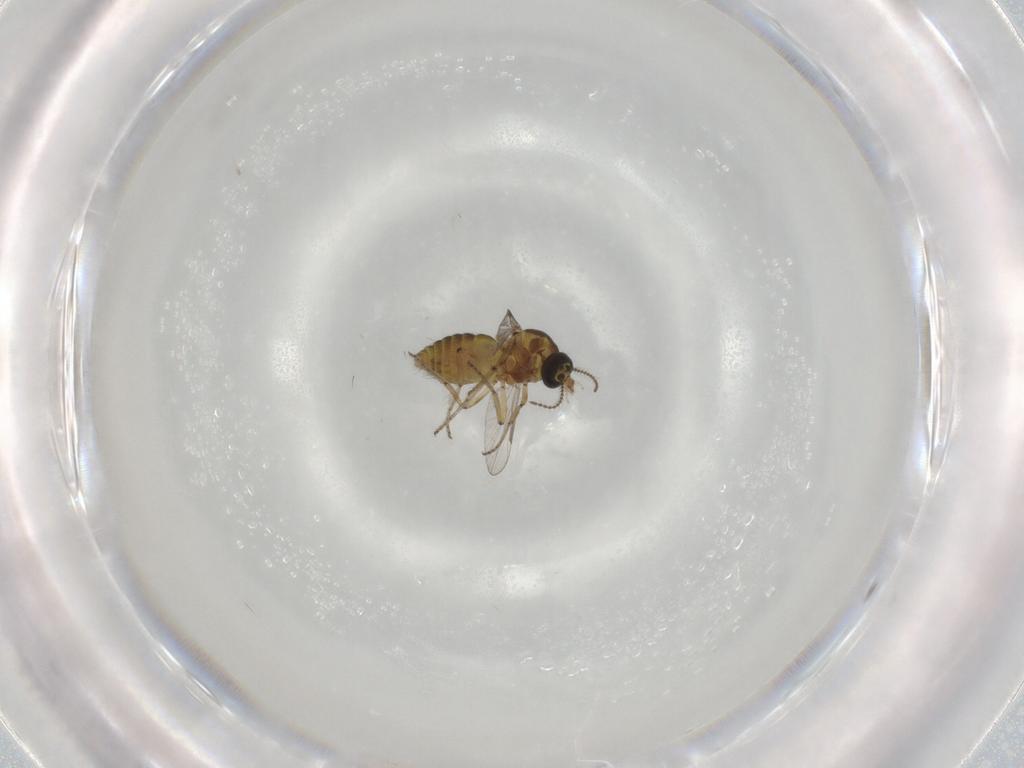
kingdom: Animalia
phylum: Arthropoda
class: Insecta
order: Diptera
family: Ceratopogonidae
